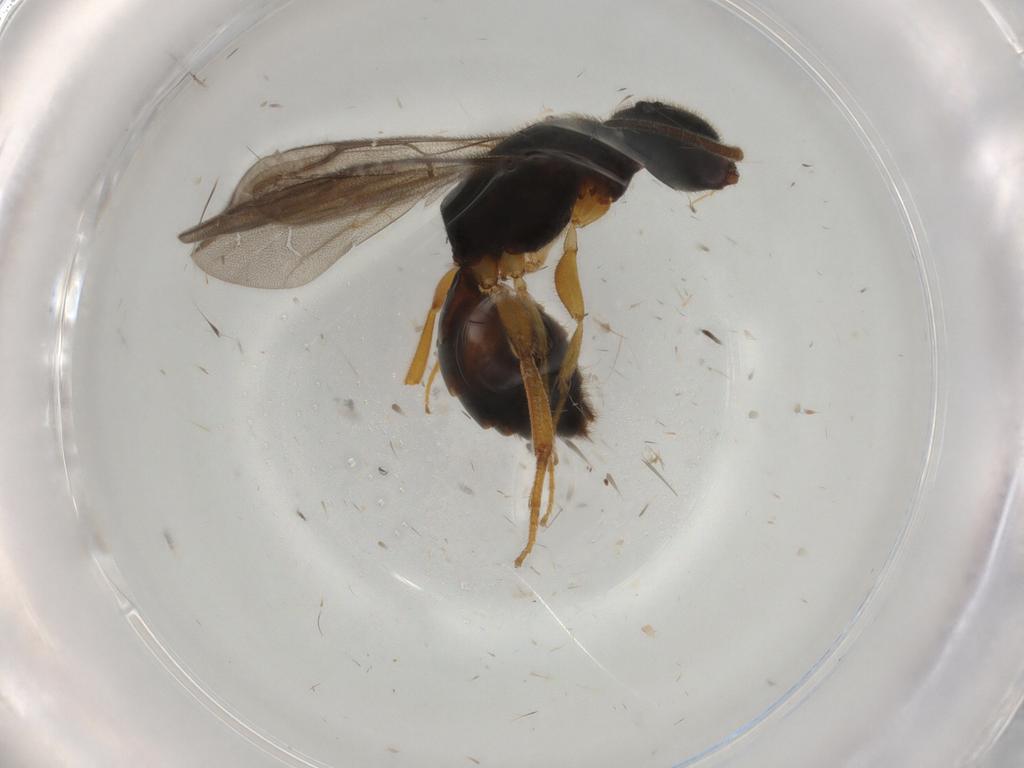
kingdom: Animalia
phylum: Arthropoda
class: Insecta
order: Hymenoptera
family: Bethylidae
